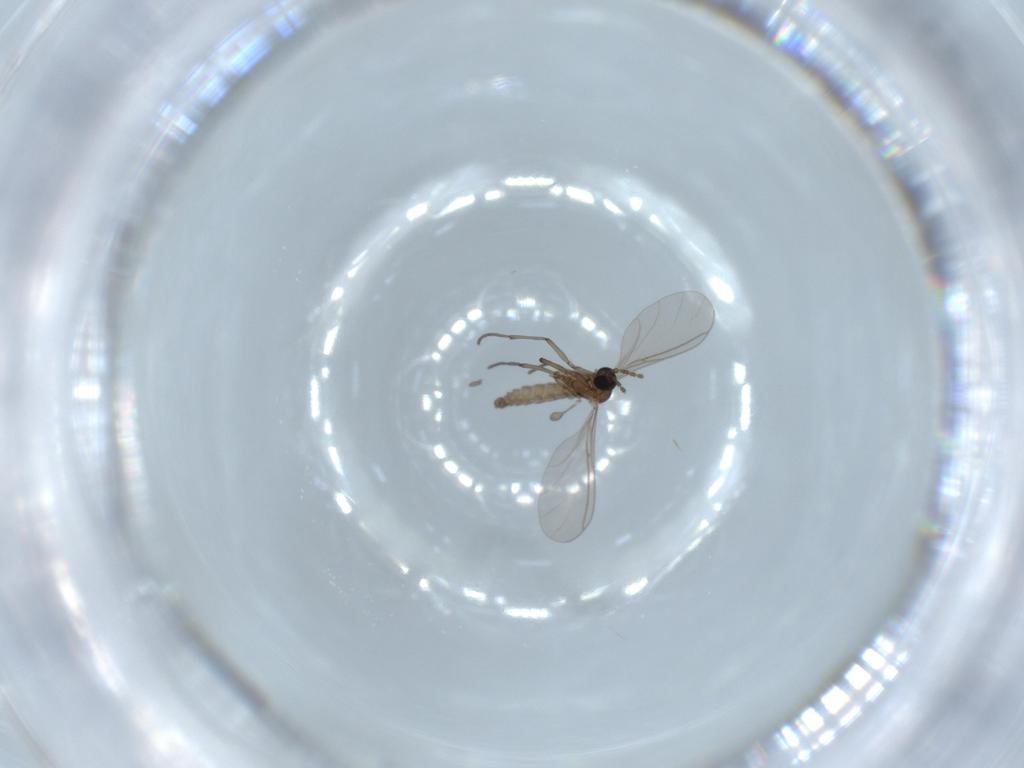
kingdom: Animalia
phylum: Arthropoda
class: Insecta
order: Diptera
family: Sciaridae
